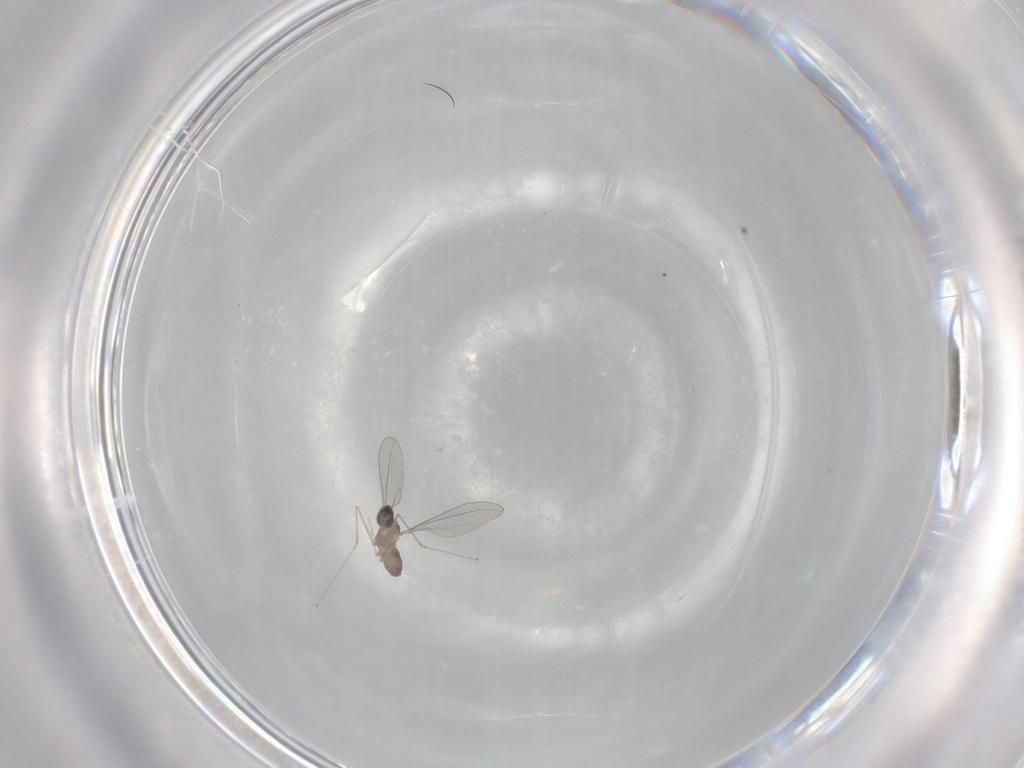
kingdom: Animalia
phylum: Arthropoda
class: Insecta
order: Diptera
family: Cecidomyiidae
